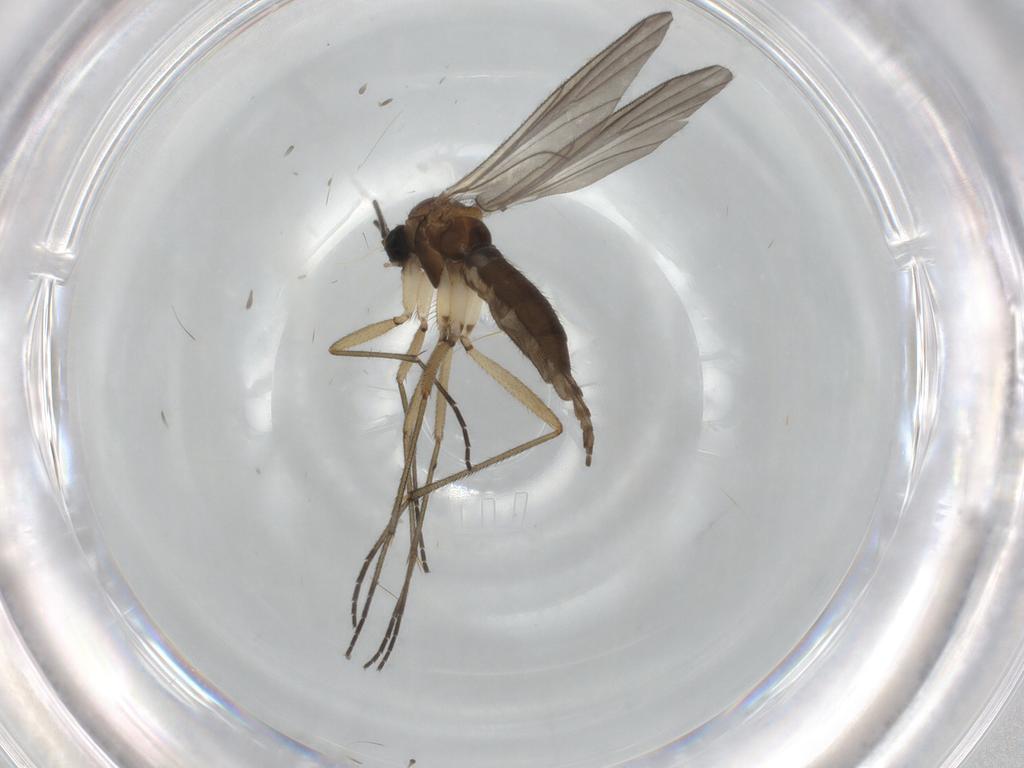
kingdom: Animalia
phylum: Arthropoda
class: Insecta
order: Diptera
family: Sciaridae
